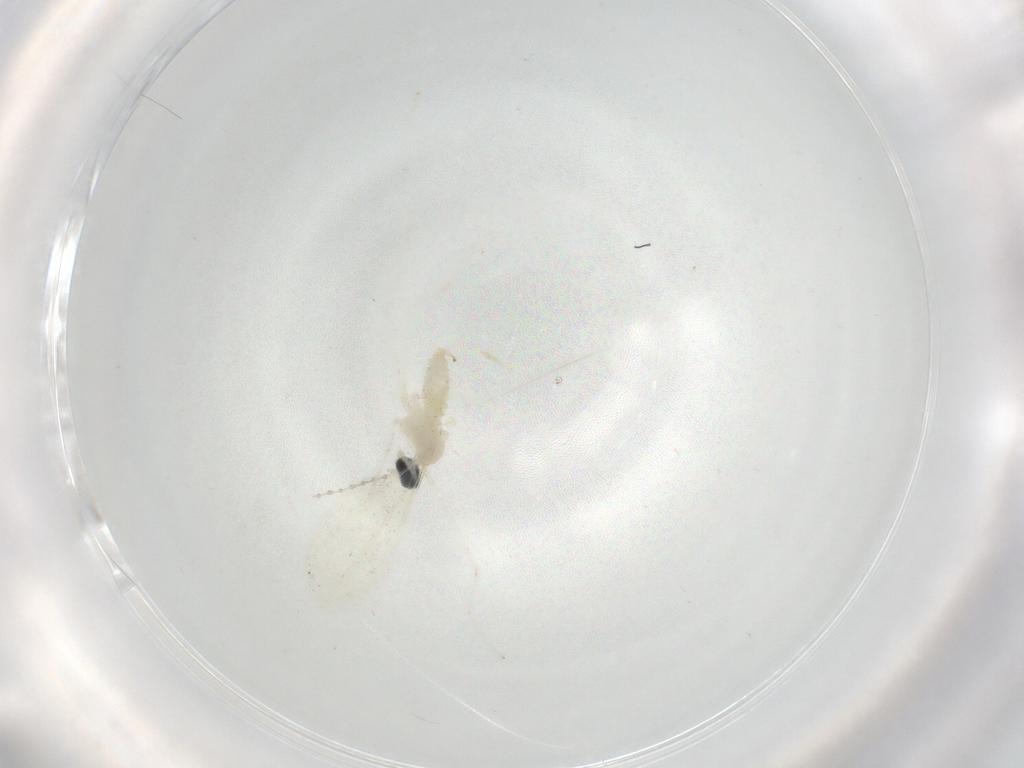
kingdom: Animalia
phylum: Arthropoda
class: Insecta
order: Diptera
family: Cecidomyiidae
